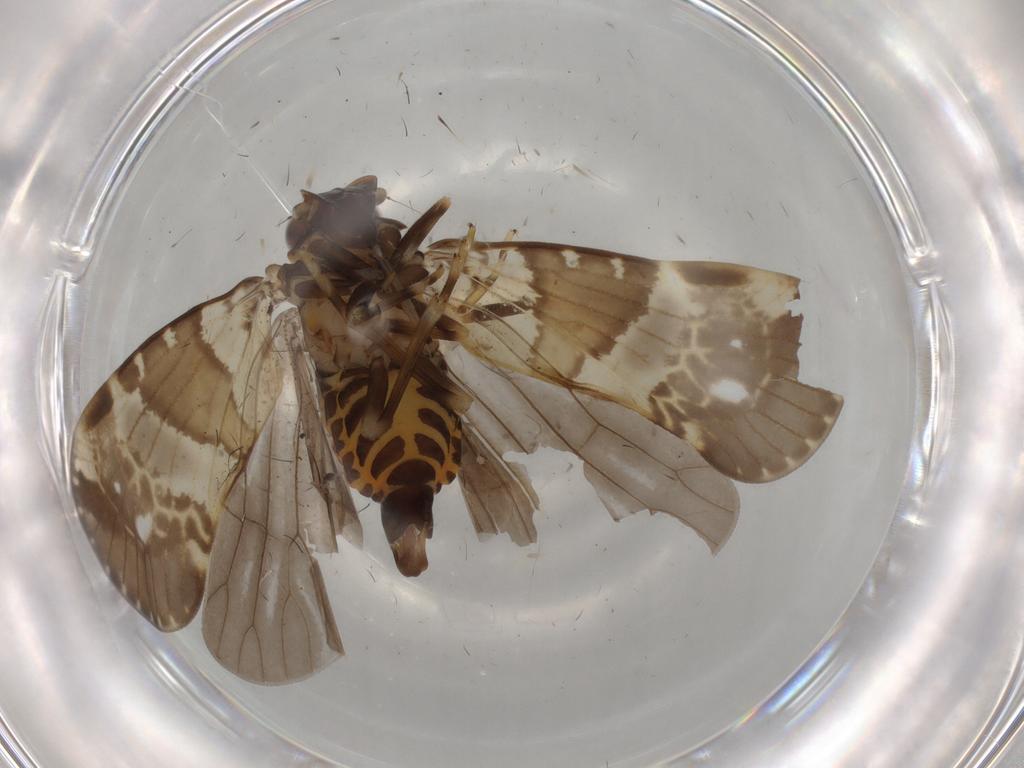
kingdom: Animalia
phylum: Arthropoda
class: Insecta
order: Hemiptera
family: Cixiidae
